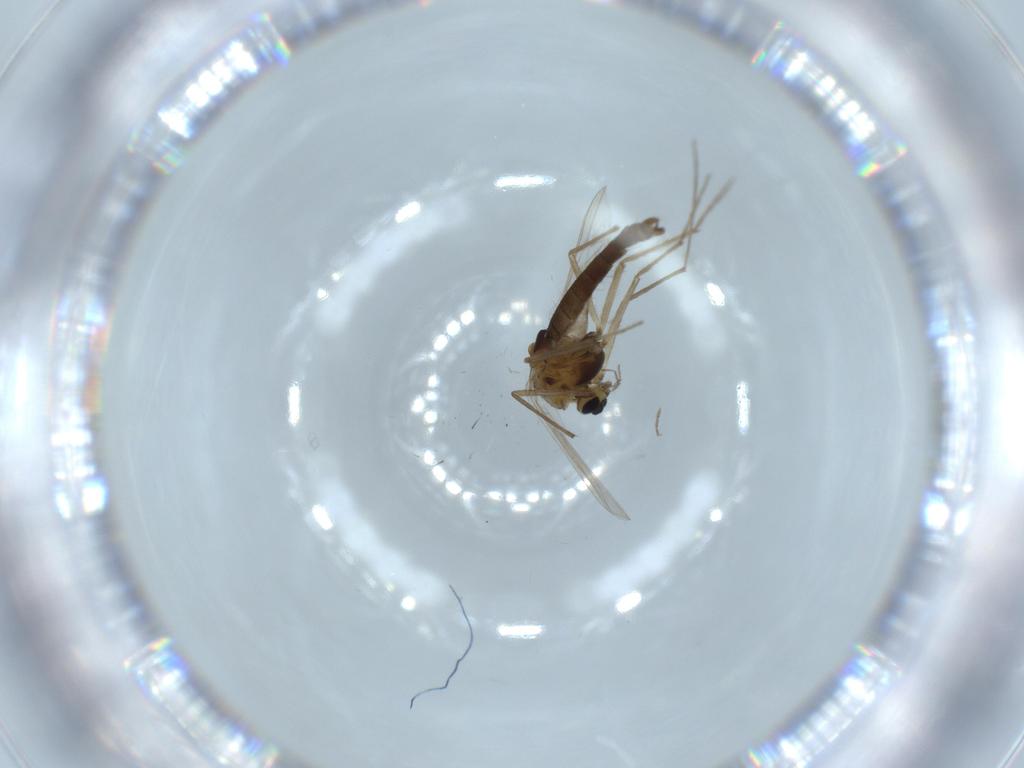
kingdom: Animalia
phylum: Arthropoda
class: Insecta
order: Diptera
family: Chironomidae
